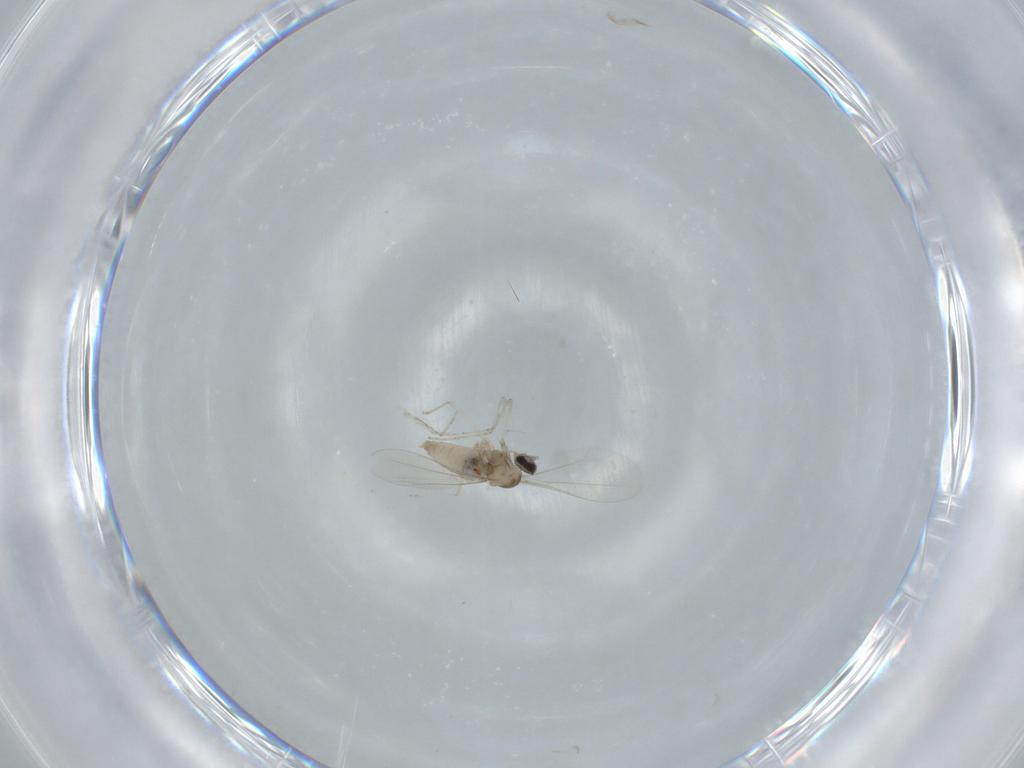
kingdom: Animalia
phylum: Arthropoda
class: Insecta
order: Diptera
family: Cecidomyiidae
